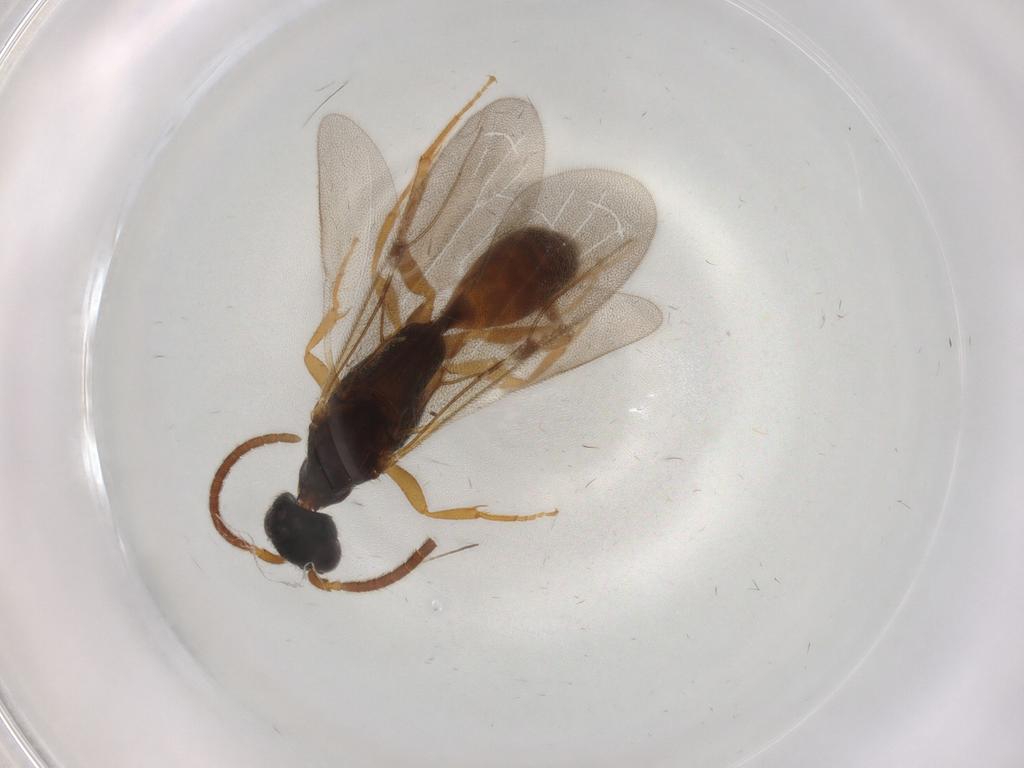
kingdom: Animalia
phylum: Arthropoda
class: Insecta
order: Hymenoptera
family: Bethylidae
